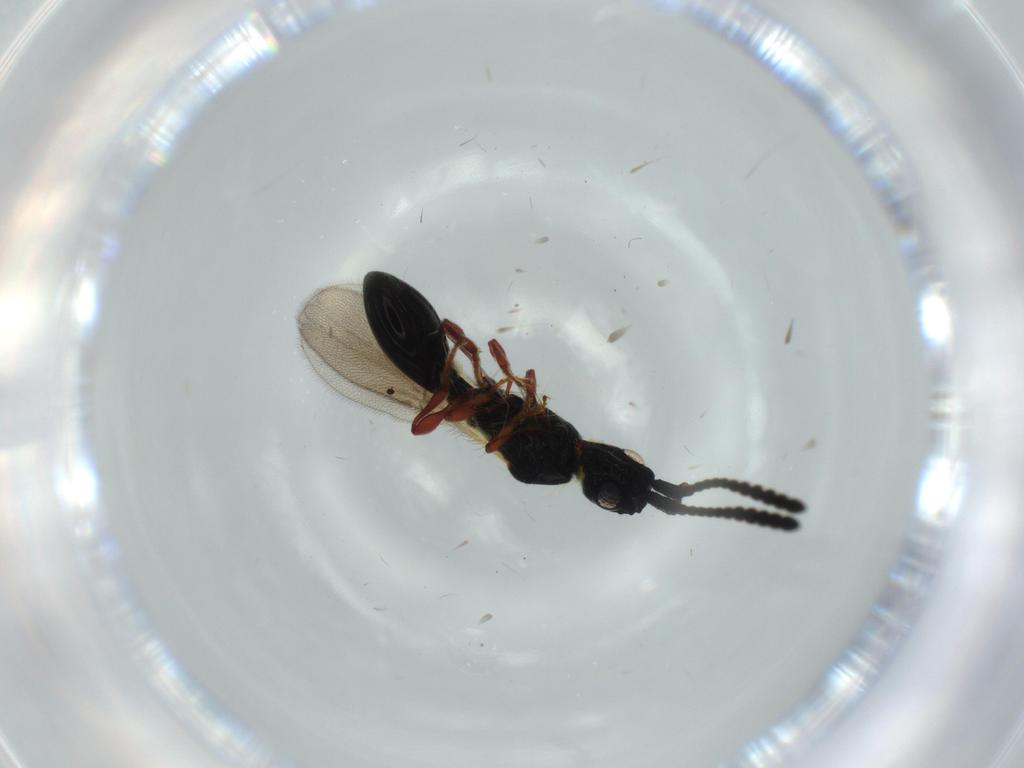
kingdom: Animalia
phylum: Arthropoda
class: Insecta
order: Hymenoptera
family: Diapriidae
